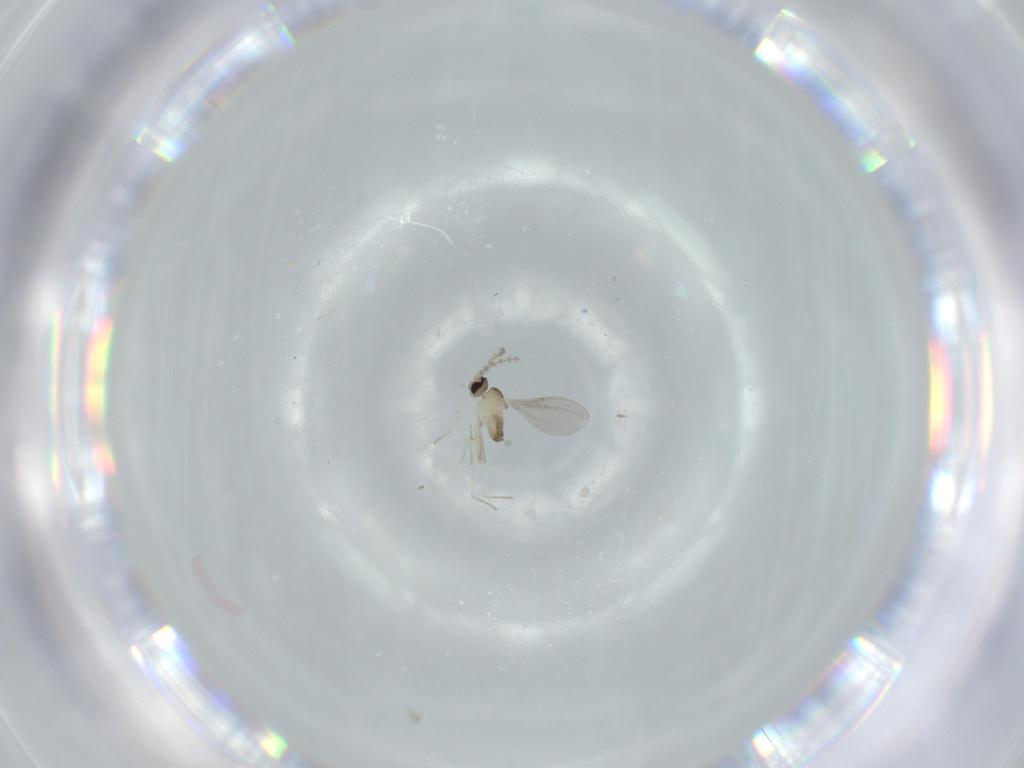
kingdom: Animalia
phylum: Arthropoda
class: Insecta
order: Diptera
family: Cecidomyiidae
